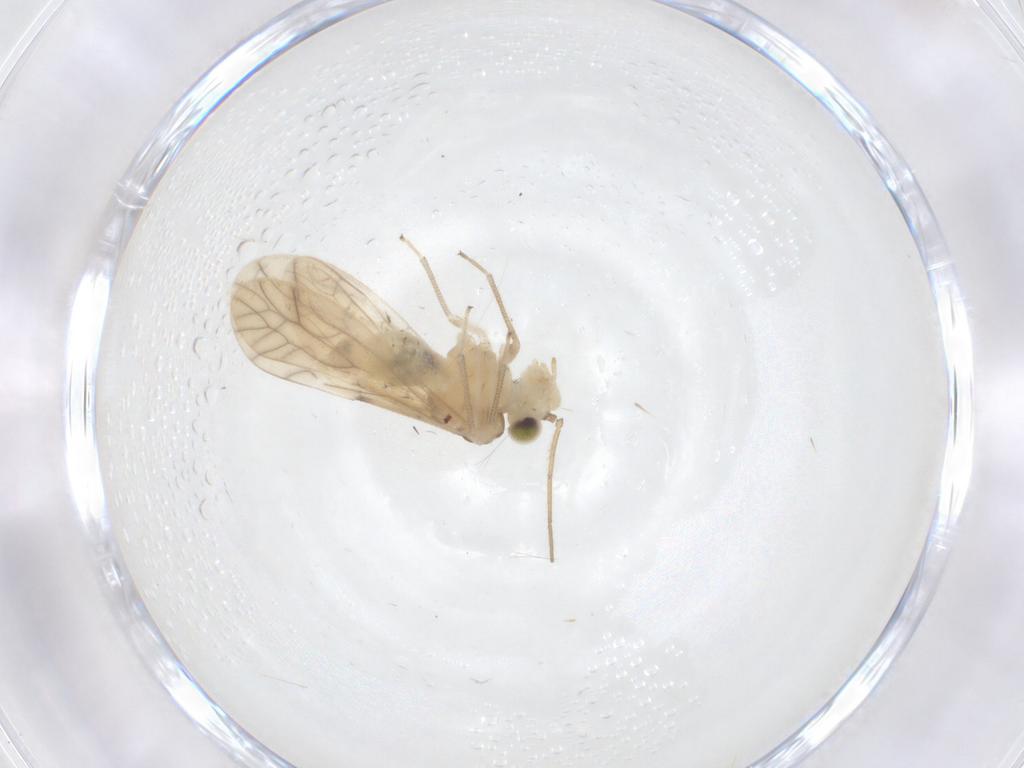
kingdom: Animalia
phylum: Arthropoda
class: Insecta
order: Psocodea
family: Caeciliusidae
